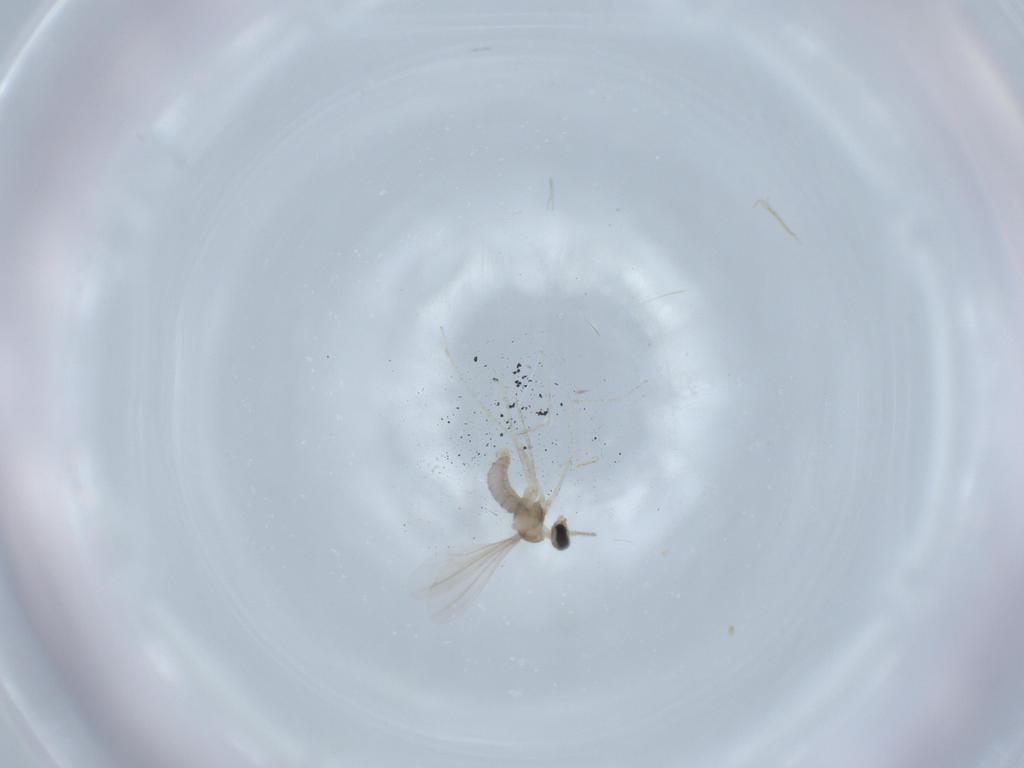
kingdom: Animalia
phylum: Arthropoda
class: Insecta
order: Diptera
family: Cecidomyiidae
